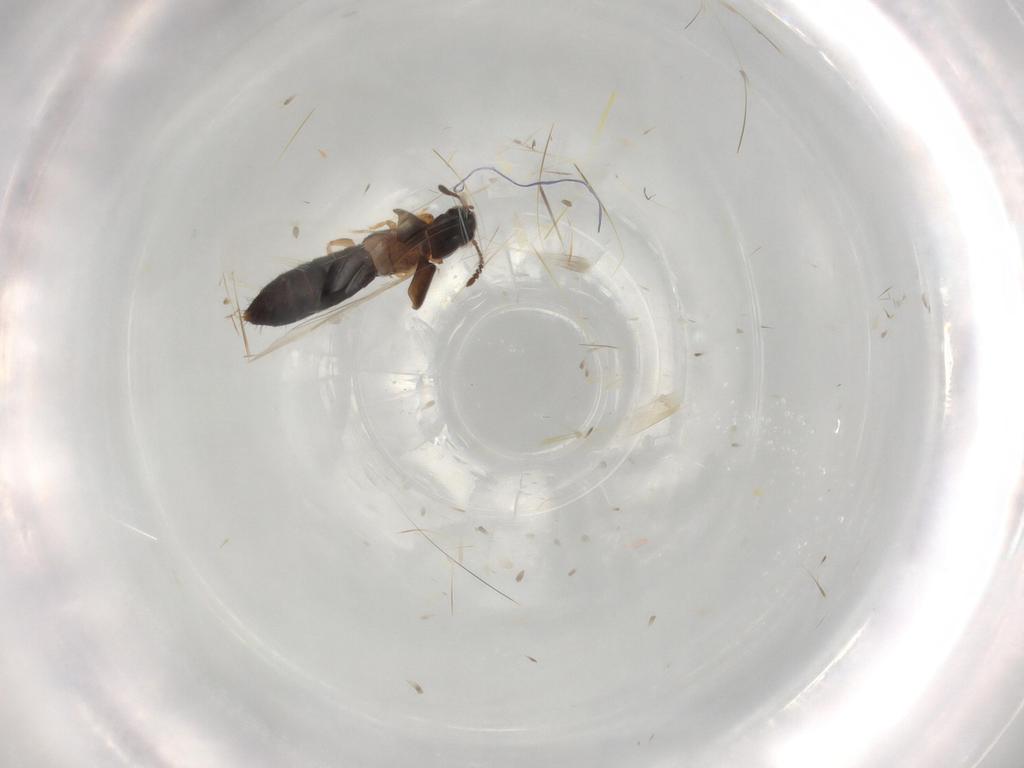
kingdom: Animalia
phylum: Arthropoda
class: Insecta
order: Coleoptera
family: Staphylinidae
